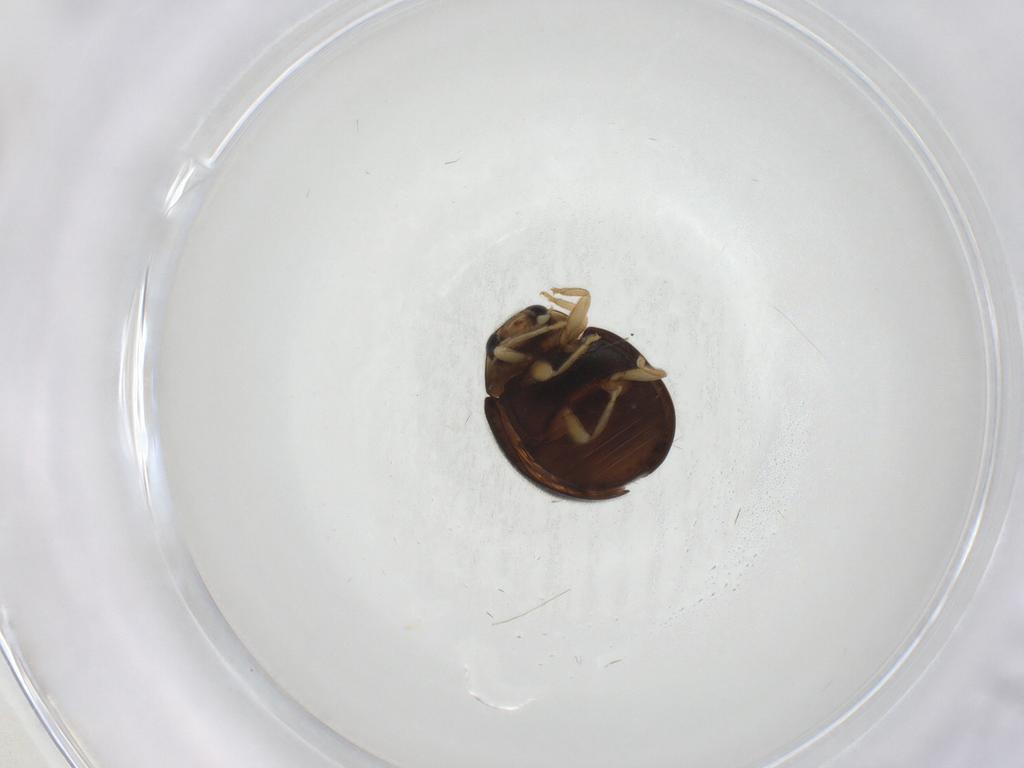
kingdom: Animalia
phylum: Arthropoda
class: Insecta
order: Coleoptera
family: Coccinellidae
